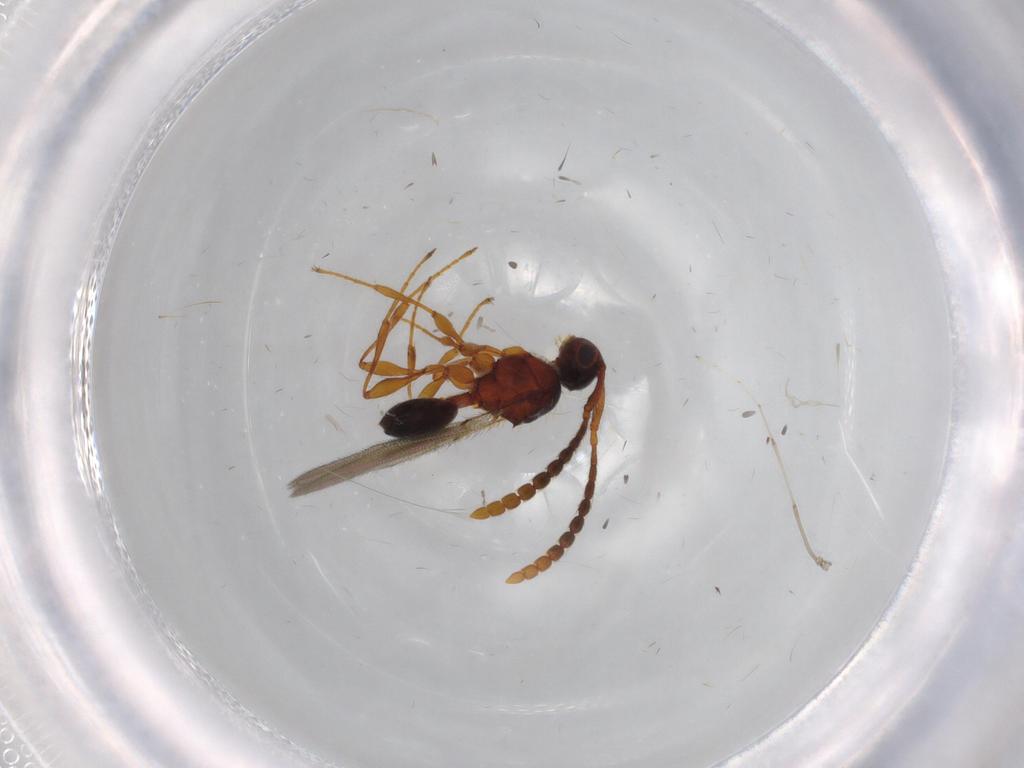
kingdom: Animalia
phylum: Arthropoda
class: Insecta
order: Hymenoptera
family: Diapriidae
